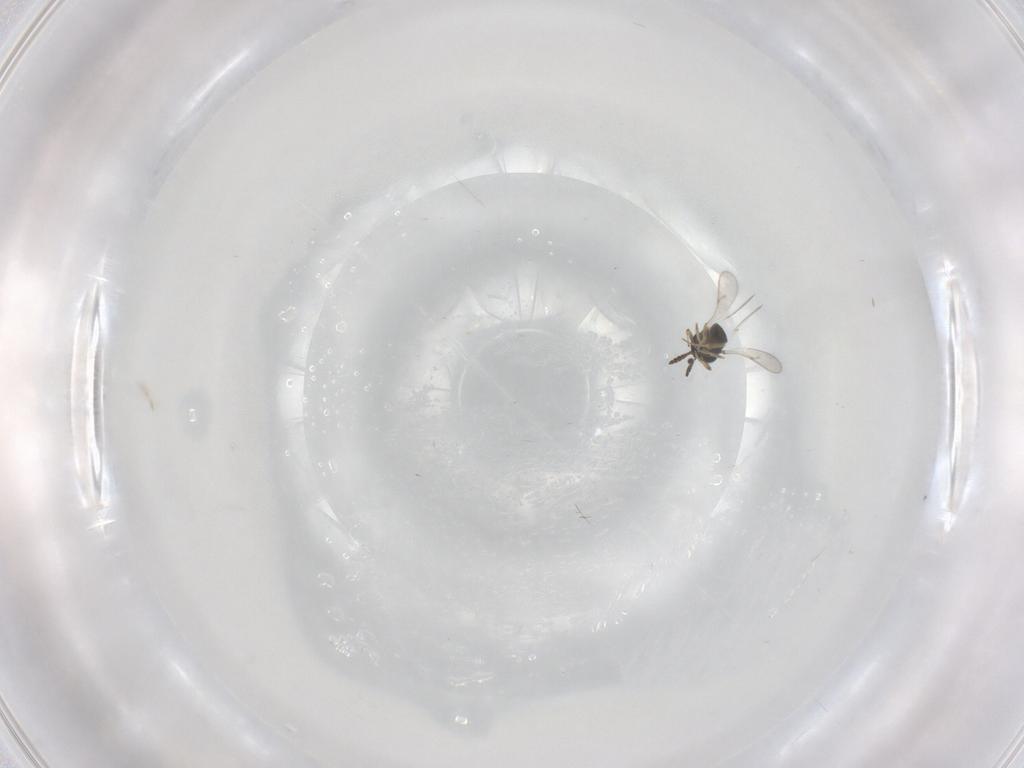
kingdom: Animalia
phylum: Arthropoda
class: Insecta
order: Hymenoptera
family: Scelionidae
